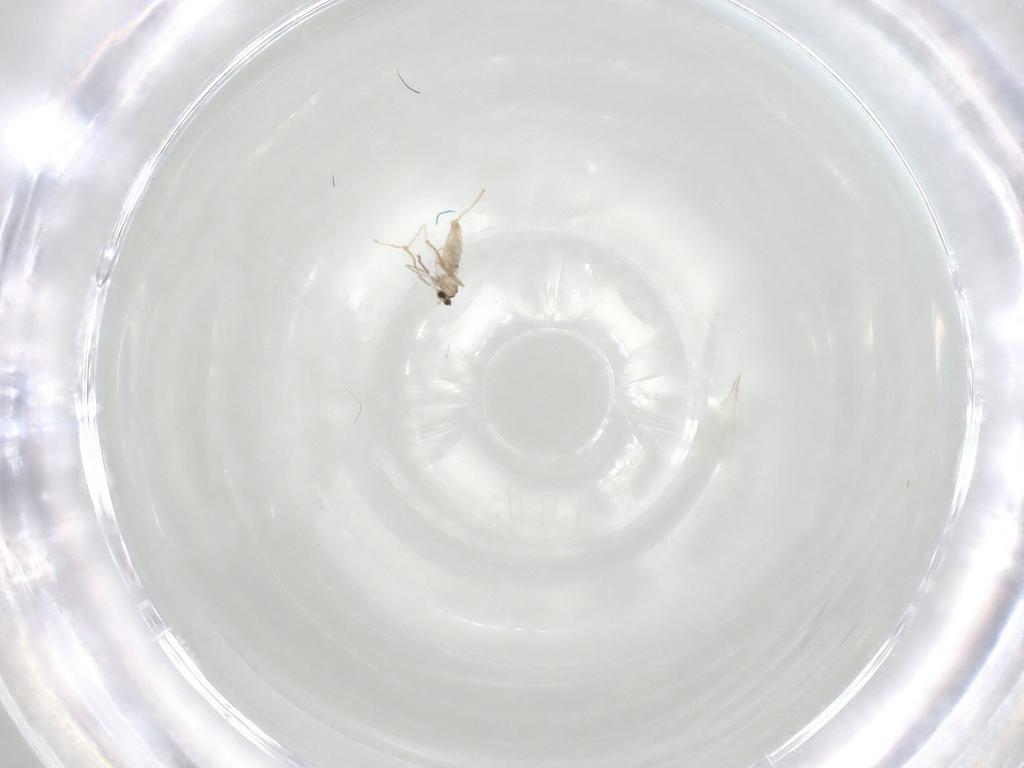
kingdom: Animalia
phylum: Arthropoda
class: Insecta
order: Diptera
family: Cecidomyiidae
